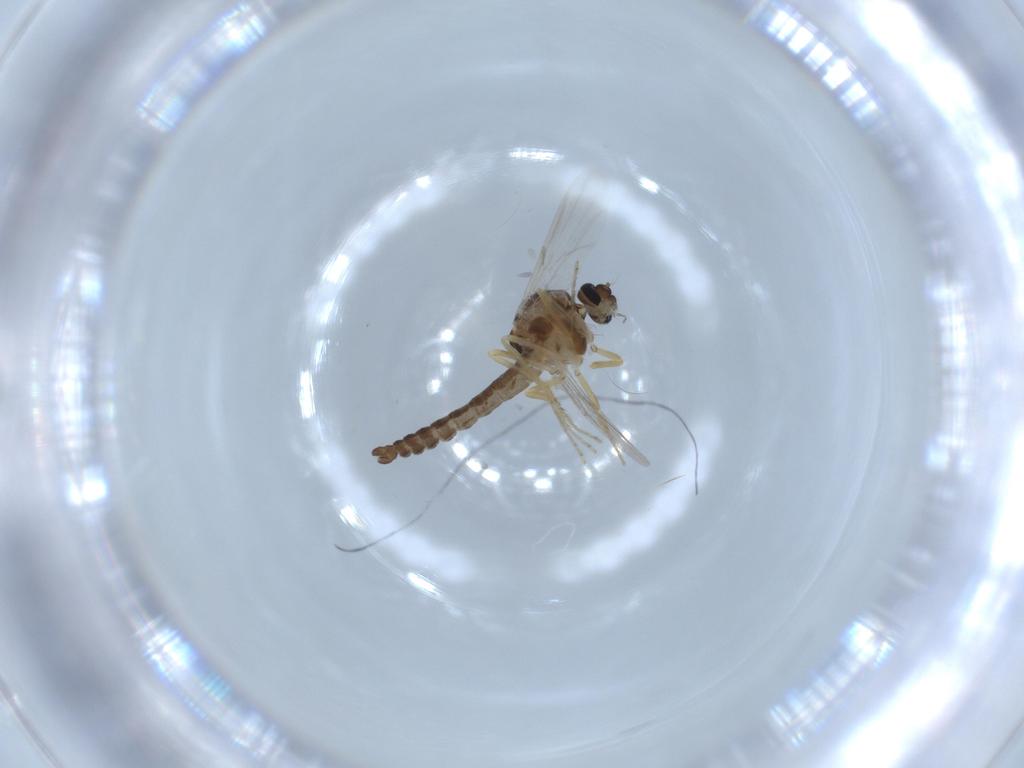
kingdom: Animalia
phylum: Arthropoda
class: Insecta
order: Diptera
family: Ceratopogonidae
